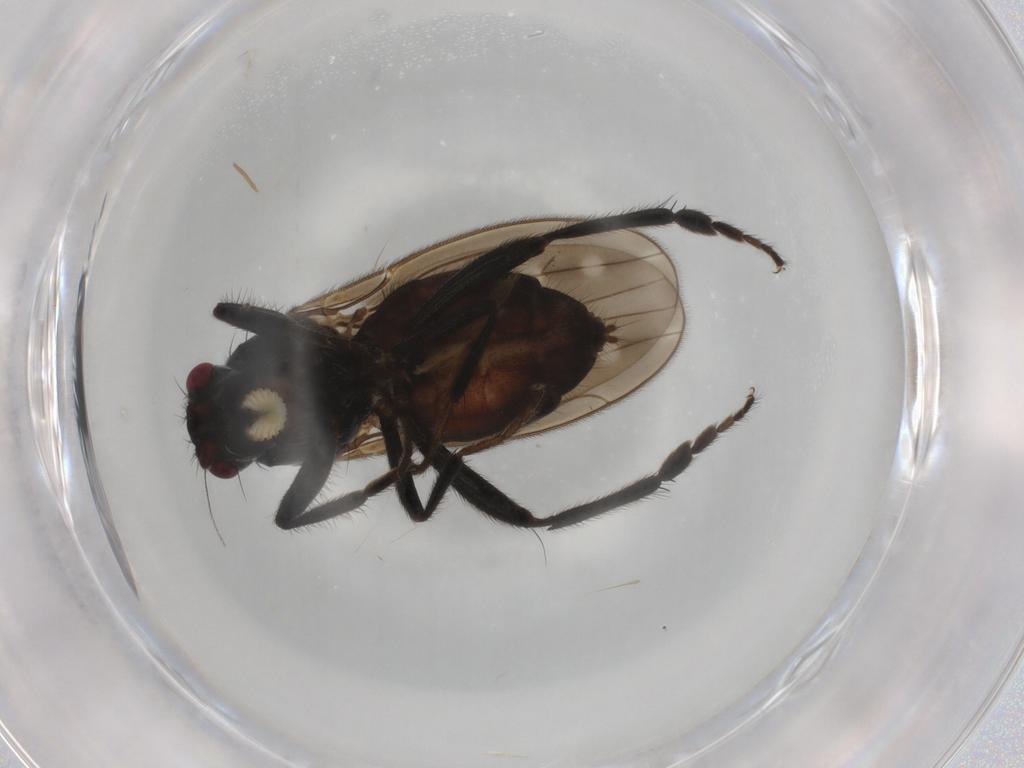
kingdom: Animalia
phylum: Arthropoda
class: Insecta
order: Diptera
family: Sphaeroceridae
